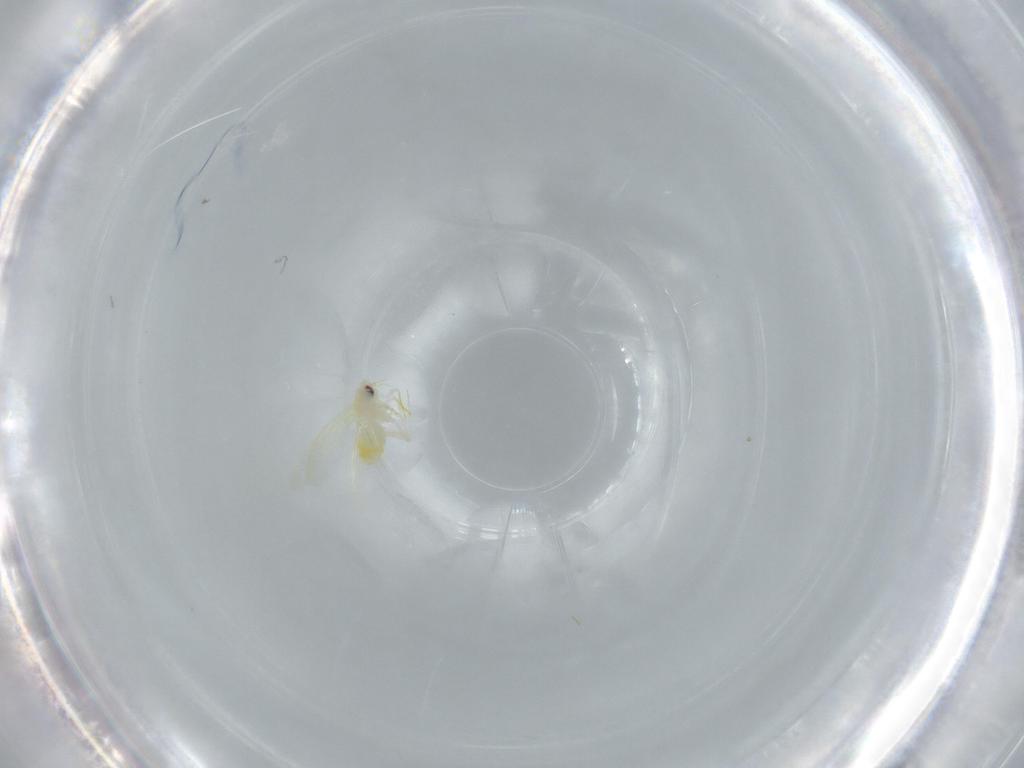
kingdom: Animalia
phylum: Arthropoda
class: Insecta
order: Hemiptera
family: Aleyrodidae
